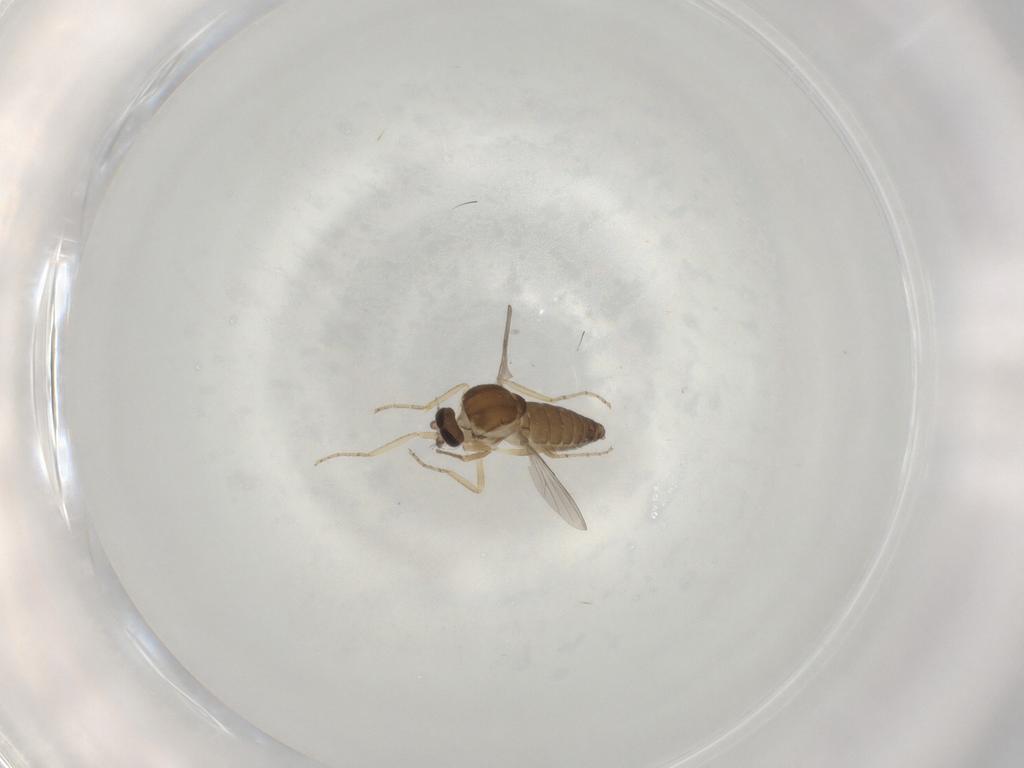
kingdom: Animalia
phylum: Arthropoda
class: Insecta
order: Diptera
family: Ceratopogonidae
